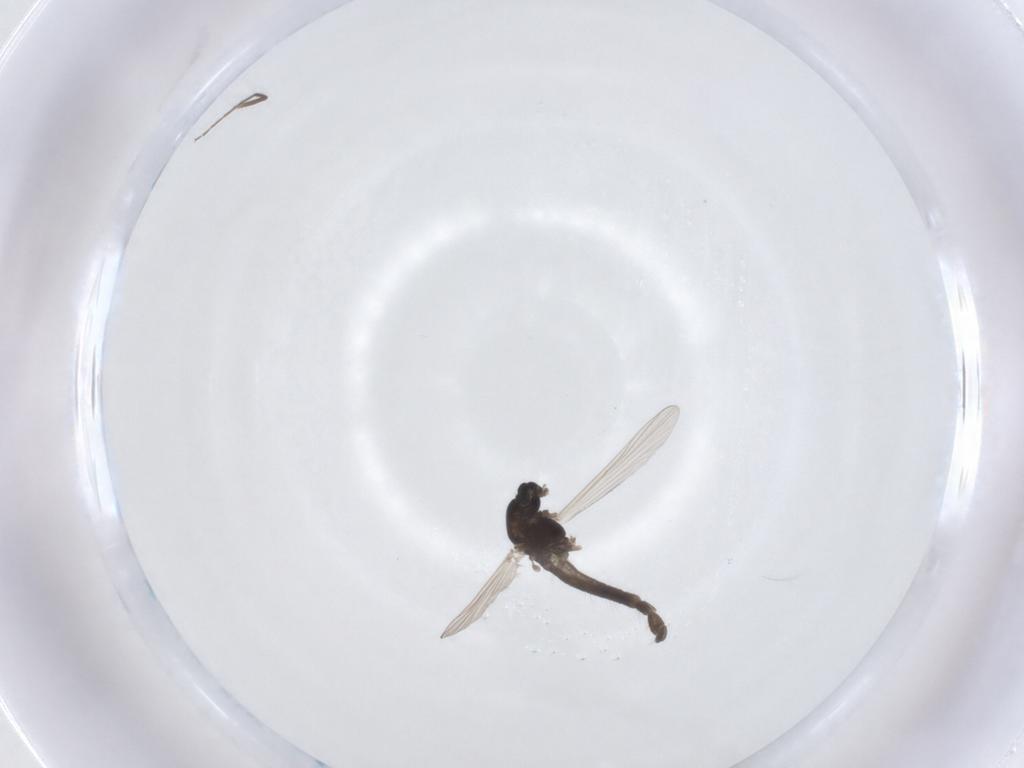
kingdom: Animalia
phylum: Arthropoda
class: Insecta
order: Diptera
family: Chironomidae
